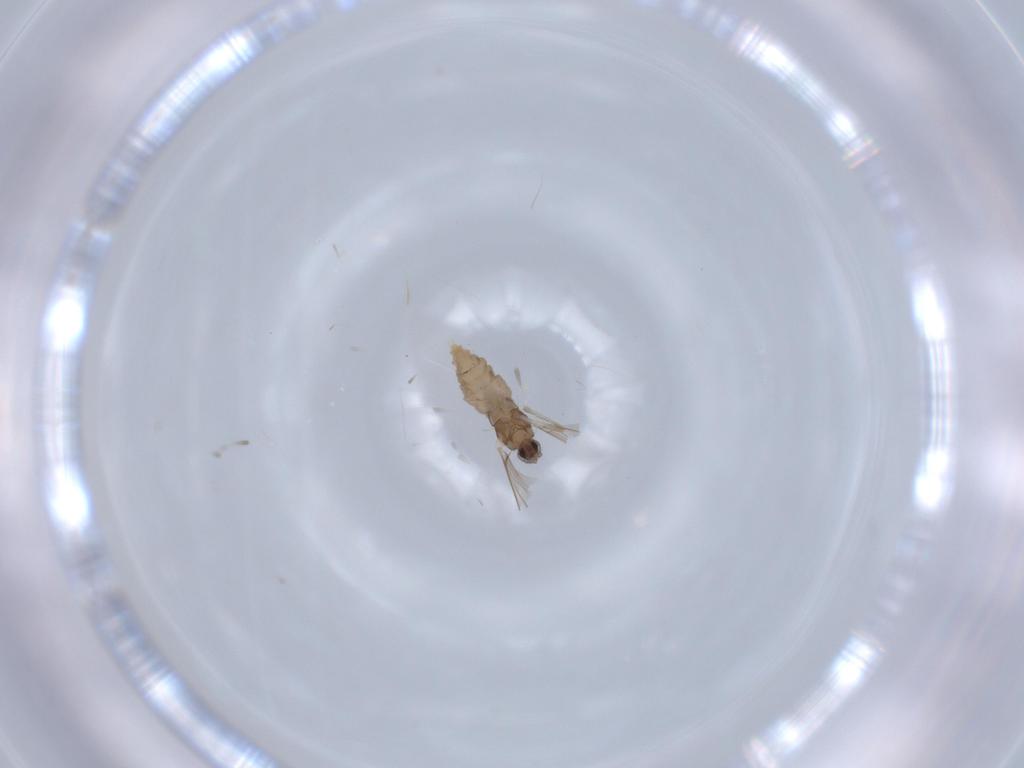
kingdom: Animalia
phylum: Arthropoda
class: Insecta
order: Diptera
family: Cecidomyiidae
